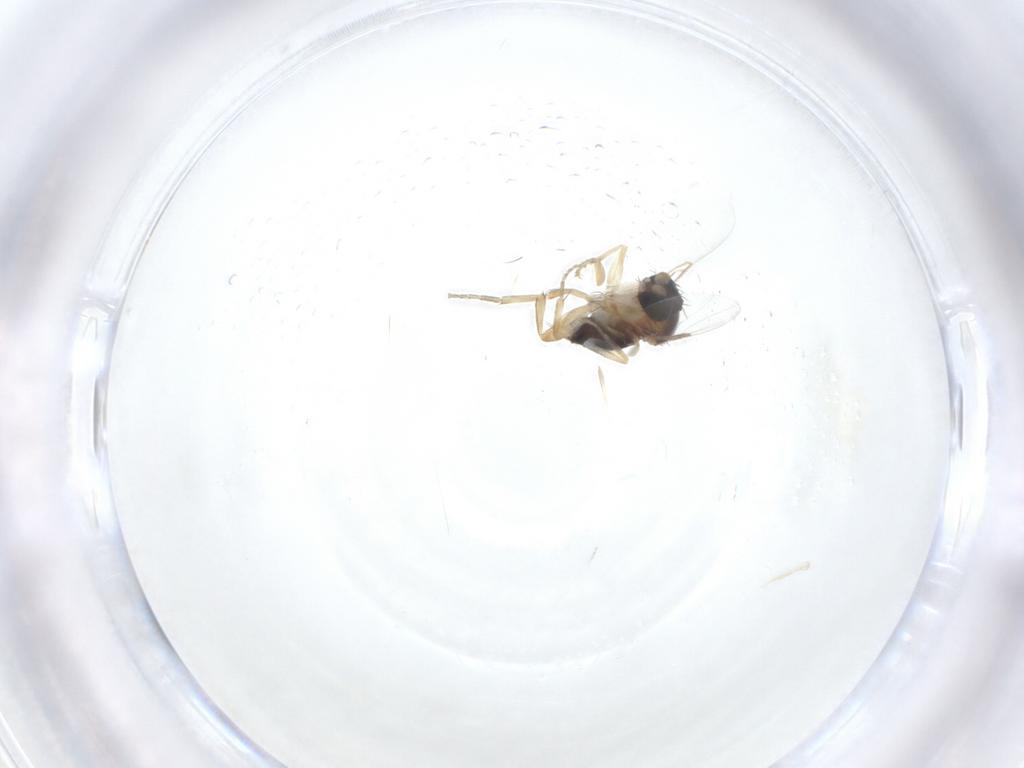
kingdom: Animalia
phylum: Arthropoda
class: Insecta
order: Diptera
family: Phoridae
